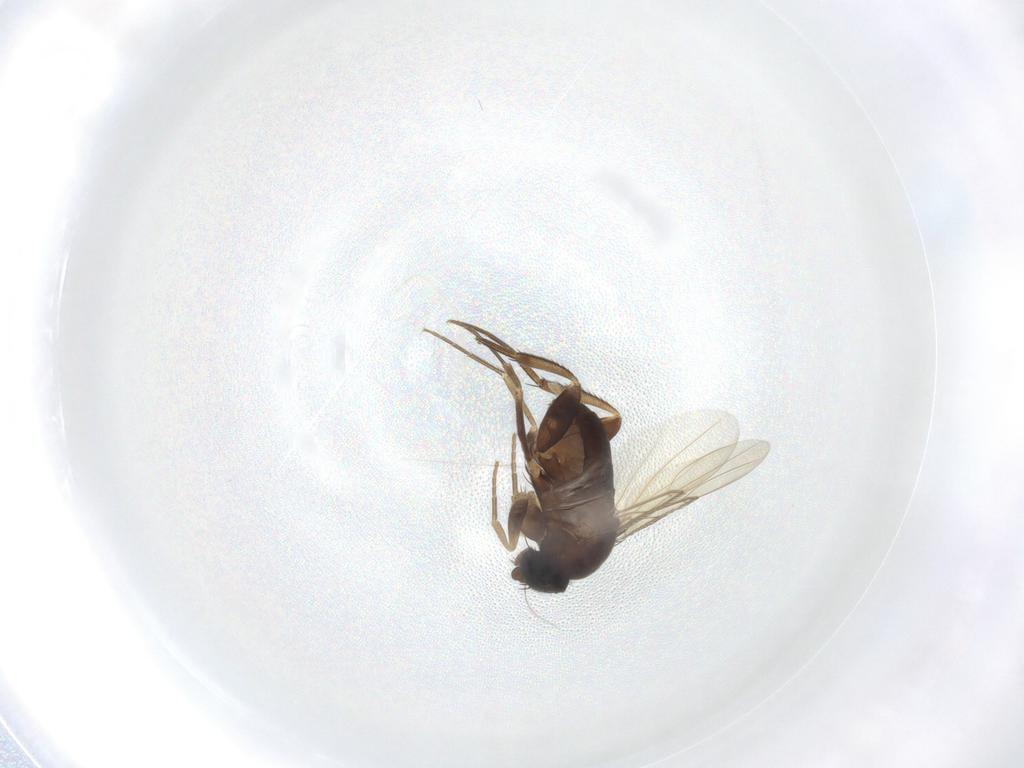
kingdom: Animalia
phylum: Arthropoda
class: Insecta
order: Diptera
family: Phoridae
